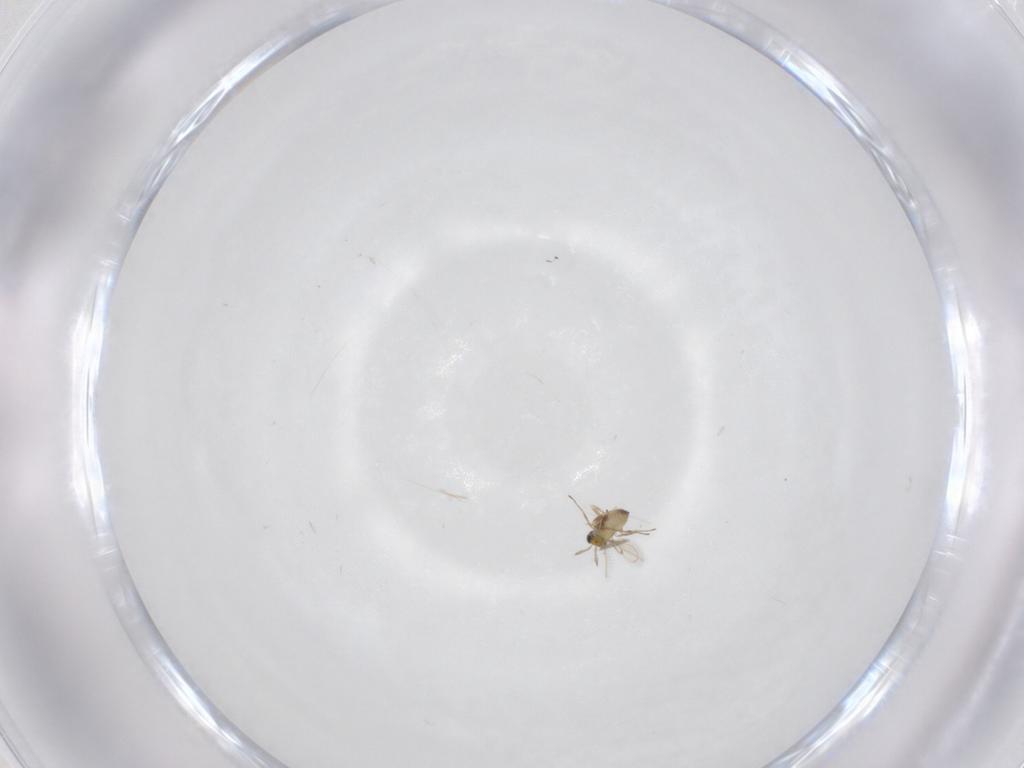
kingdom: Animalia
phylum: Arthropoda
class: Insecta
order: Hymenoptera
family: Trichogrammatidae
